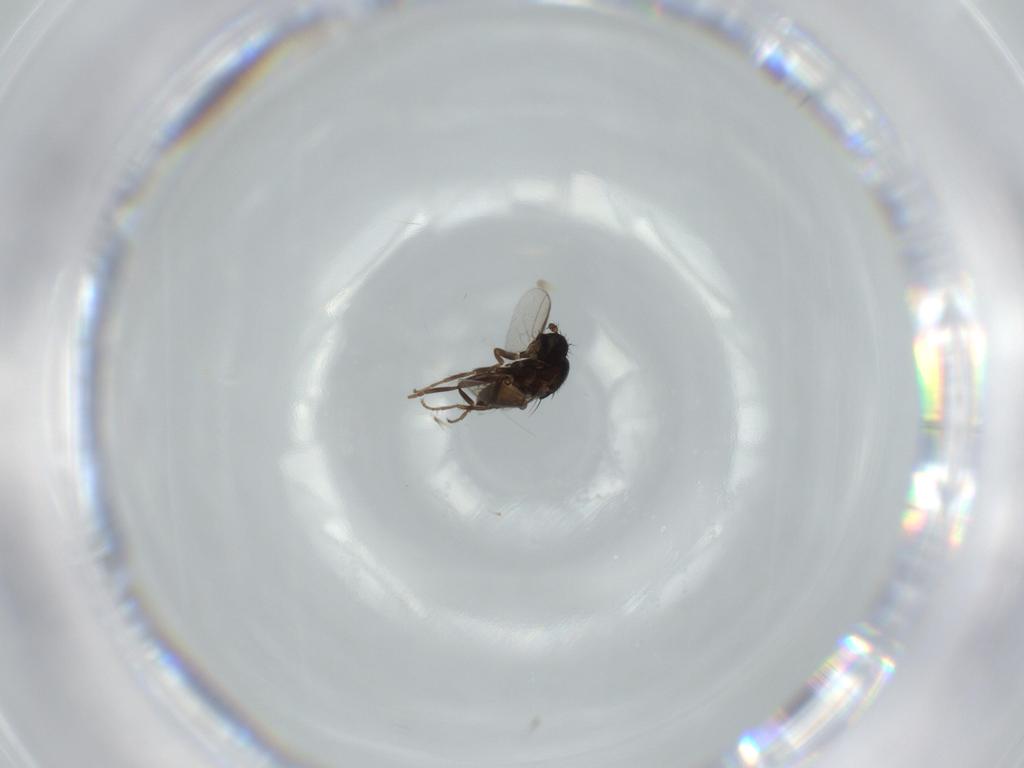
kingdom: Animalia
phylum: Arthropoda
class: Insecta
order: Diptera
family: Sphaeroceridae
